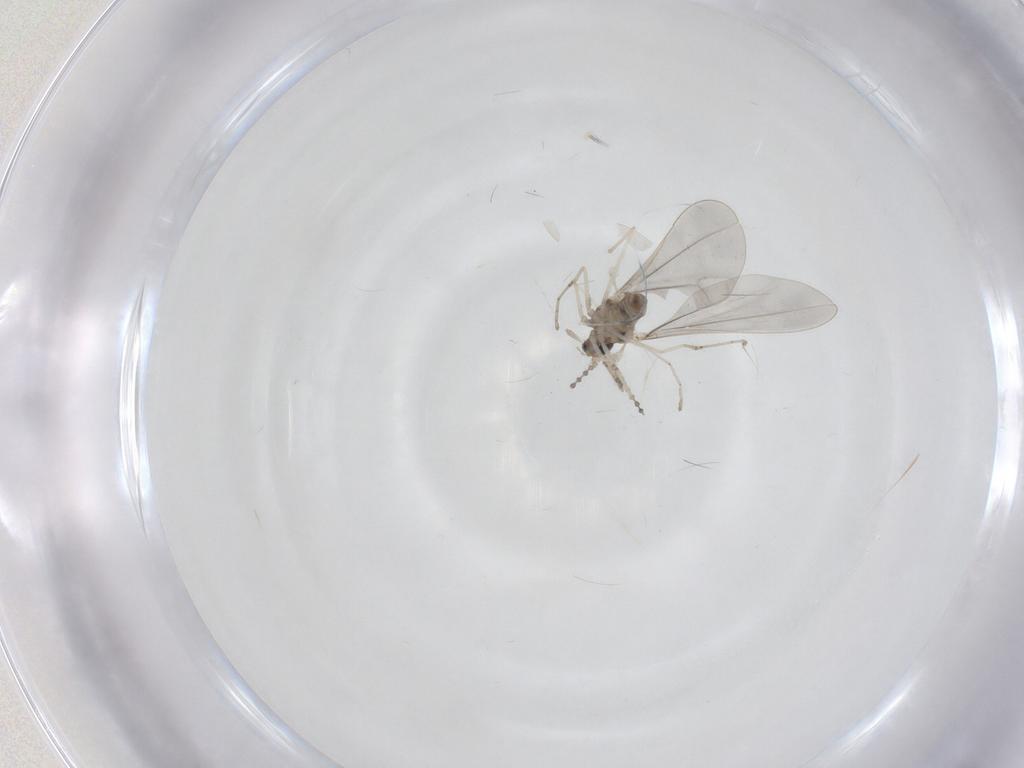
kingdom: Animalia
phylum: Arthropoda
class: Insecta
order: Diptera
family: Cecidomyiidae
